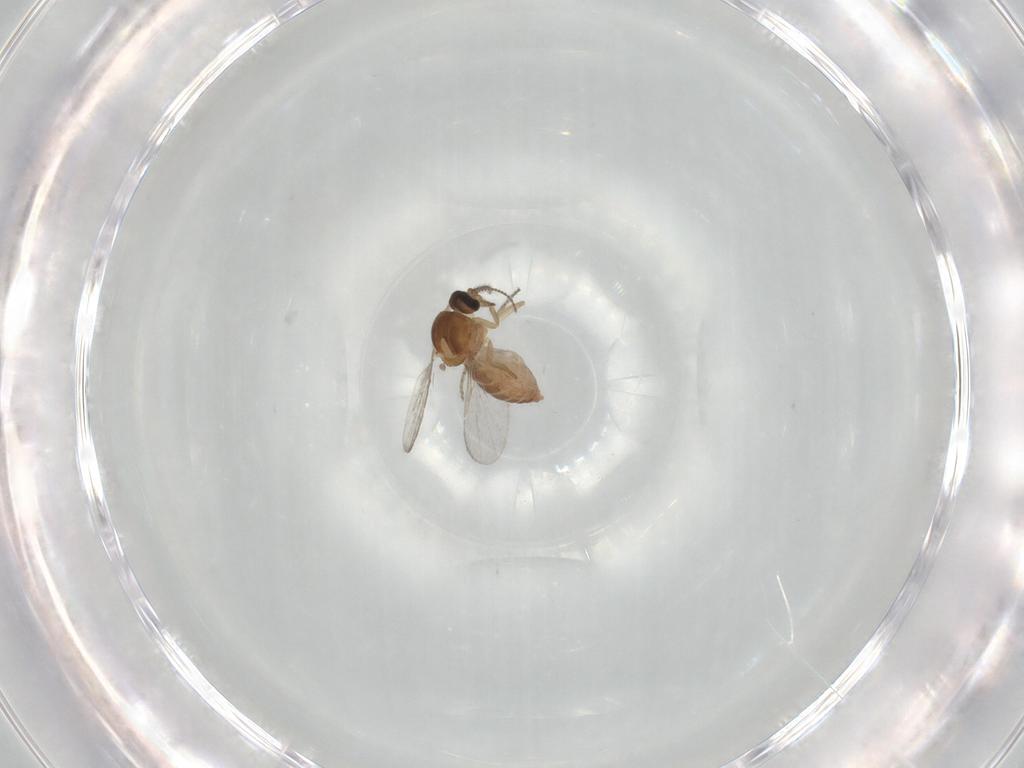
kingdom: Animalia
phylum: Arthropoda
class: Insecta
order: Diptera
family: Ceratopogonidae
